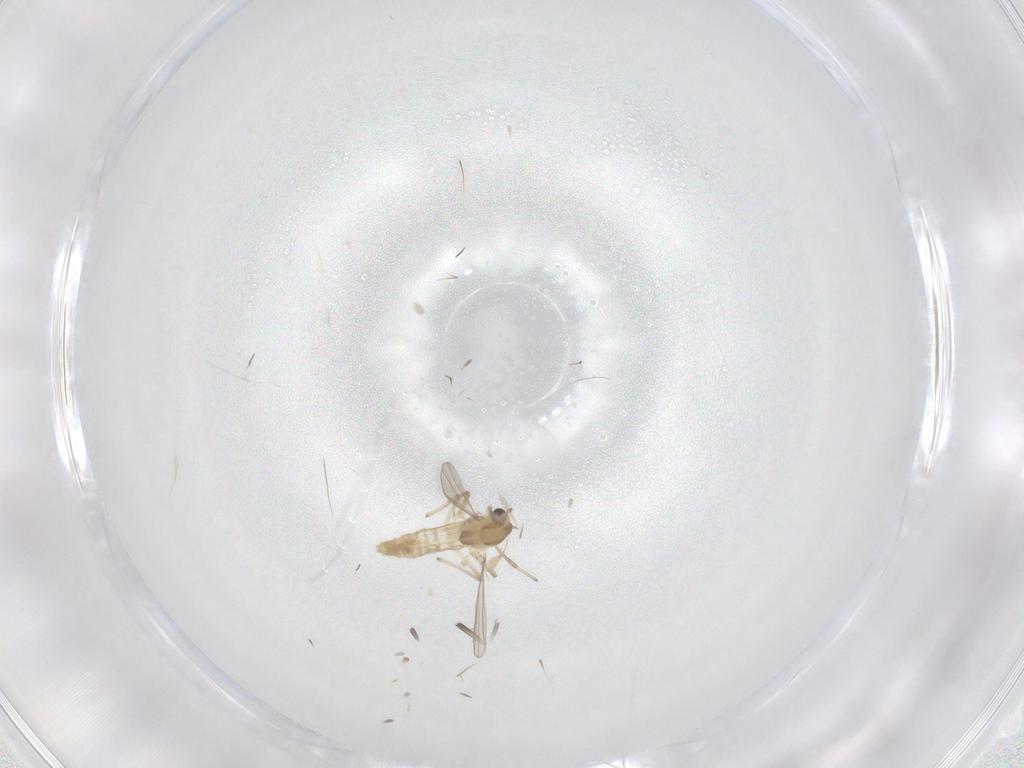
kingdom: Animalia
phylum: Arthropoda
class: Insecta
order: Diptera
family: Chironomidae
